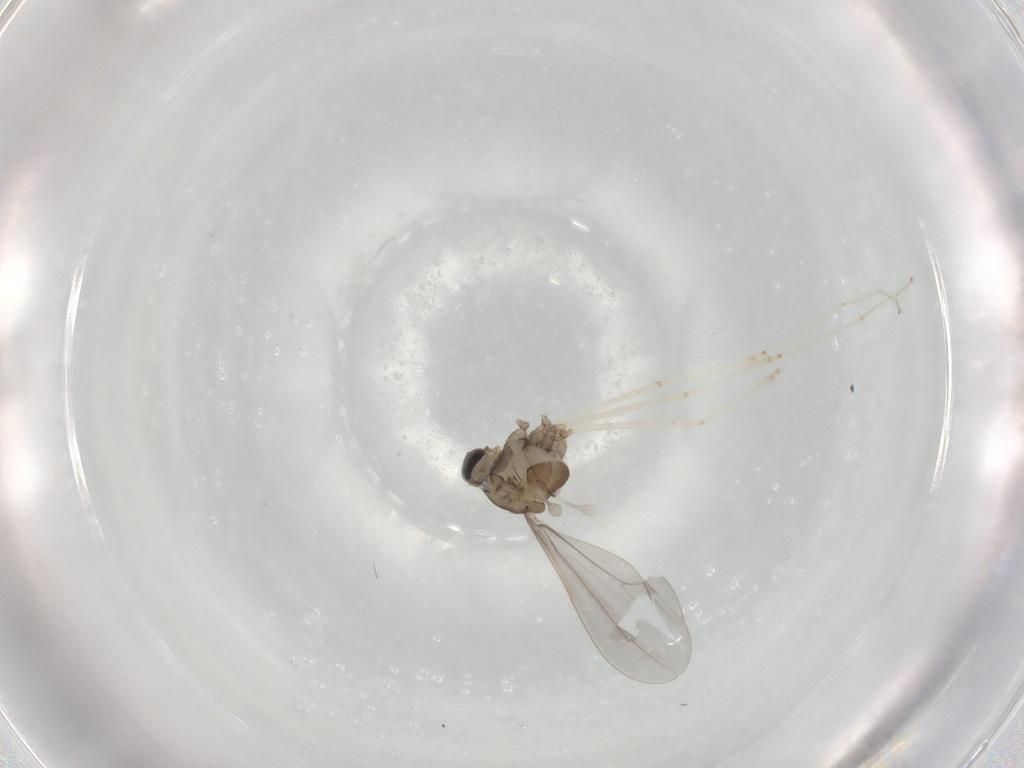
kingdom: Animalia
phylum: Arthropoda
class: Insecta
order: Diptera
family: Cecidomyiidae
